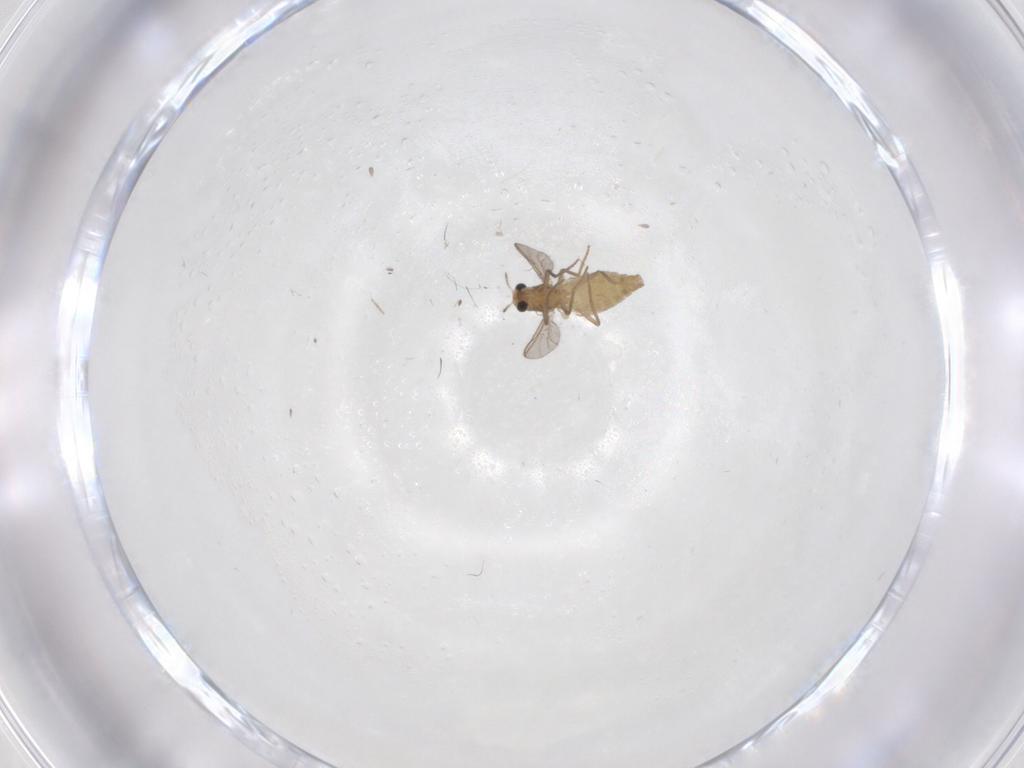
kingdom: Animalia
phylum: Arthropoda
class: Insecta
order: Diptera
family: Chironomidae
